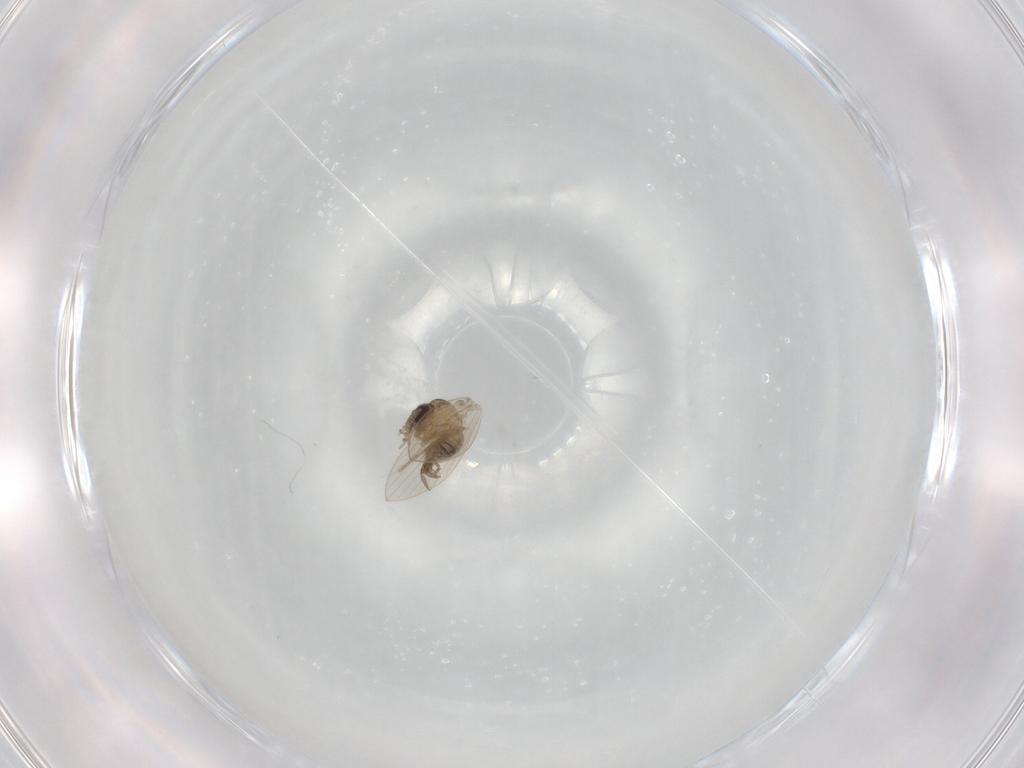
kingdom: Animalia
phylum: Arthropoda
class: Insecta
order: Diptera
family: Psychodidae
